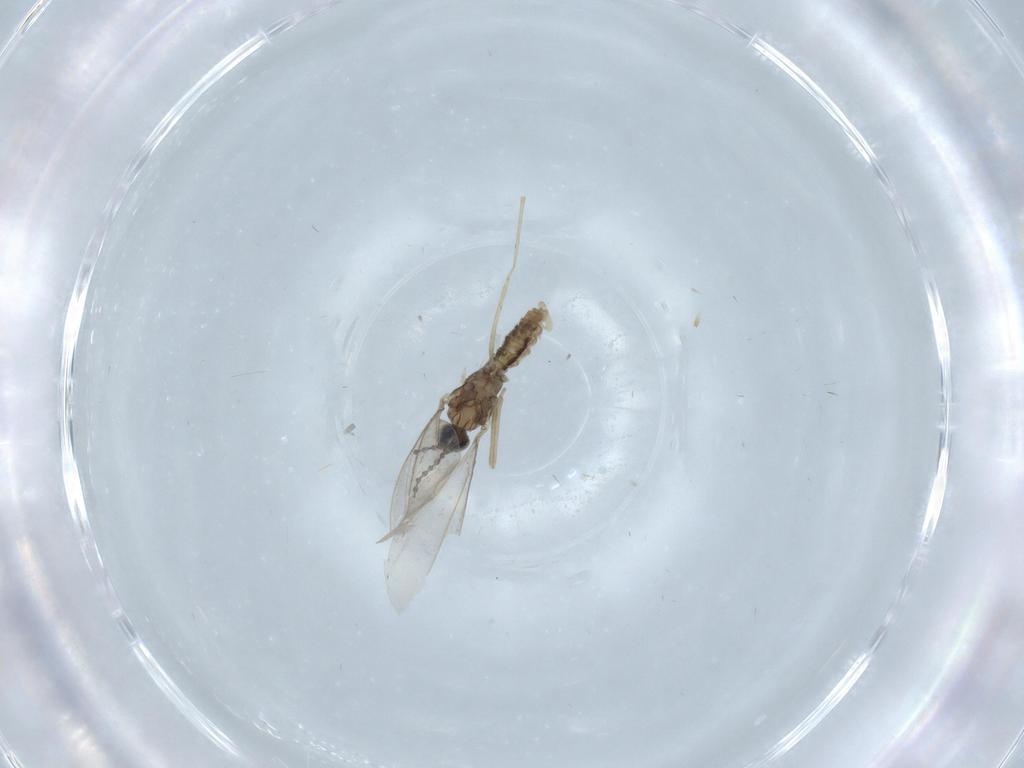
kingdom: Animalia
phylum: Arthropoda
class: Insecta
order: Diptera
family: Cecidomyiidae
